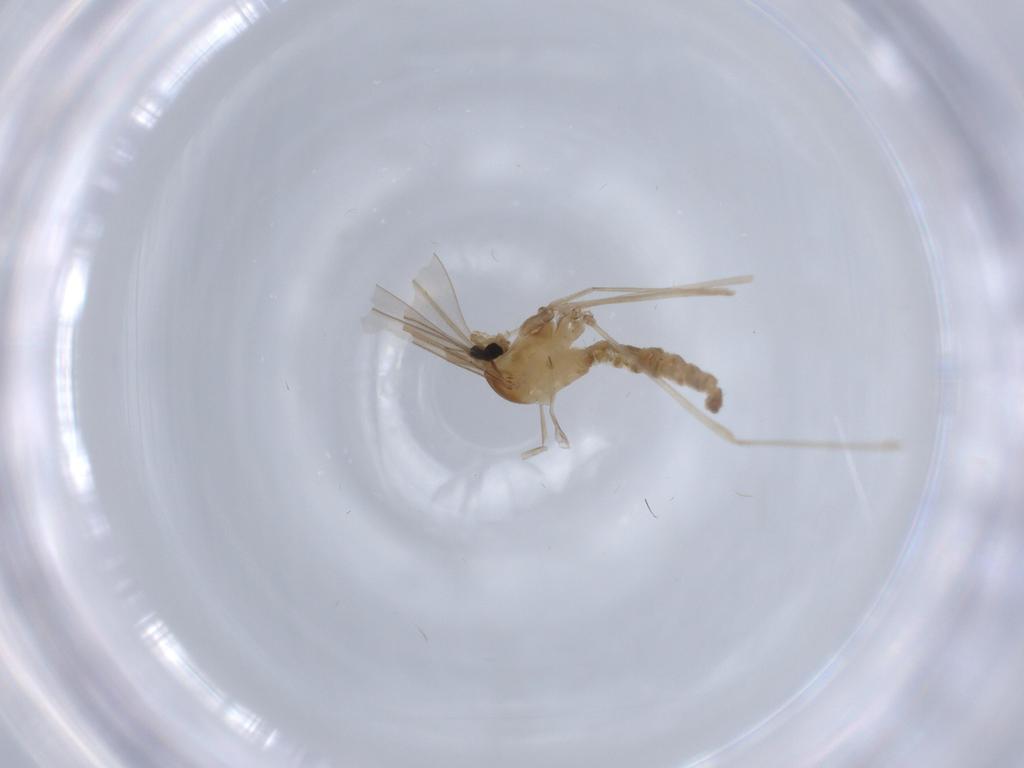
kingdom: Animalia
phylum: Arthropoda
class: Insecta
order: Diptera
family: Cecidomyiidae
